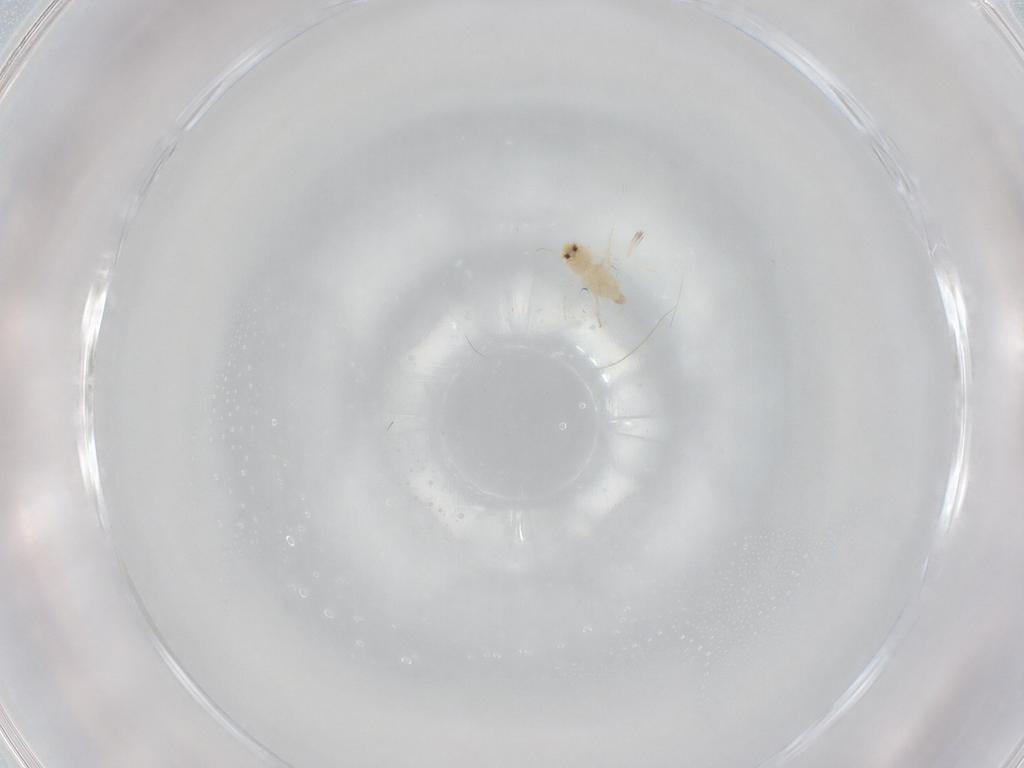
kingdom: Animalia
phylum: Arthropoda
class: Insecta
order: Hemiptera
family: Aleyrodidae
